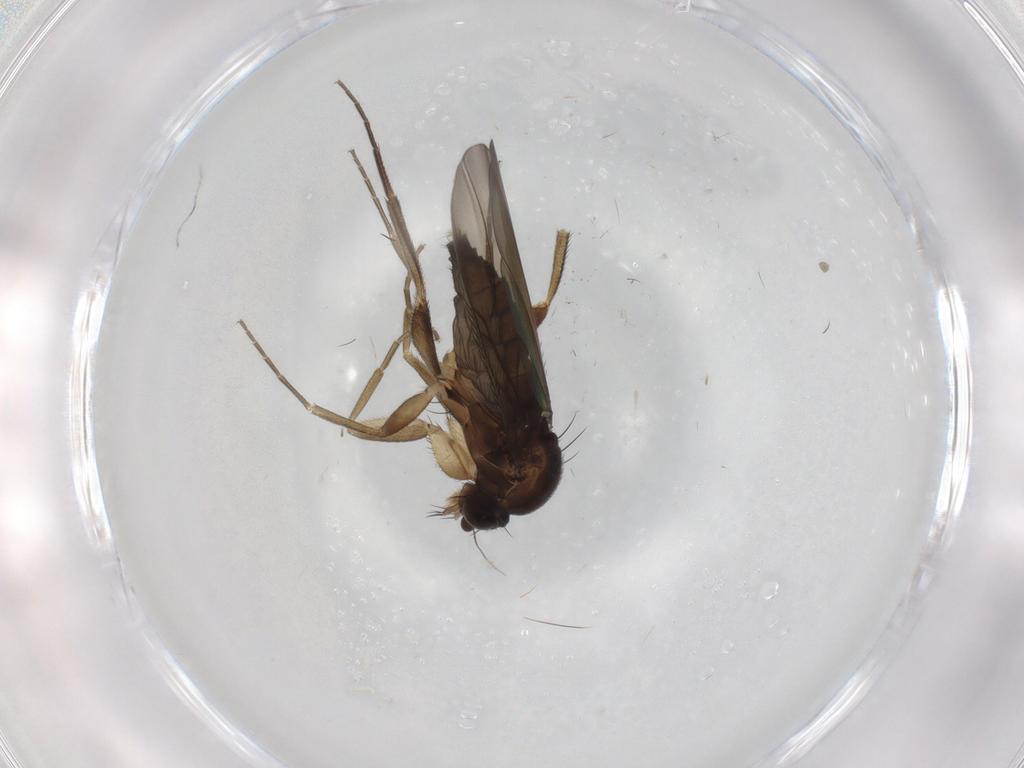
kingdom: Animalia
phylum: Arthropoda
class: Insecta
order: Diptera
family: Phoridae
